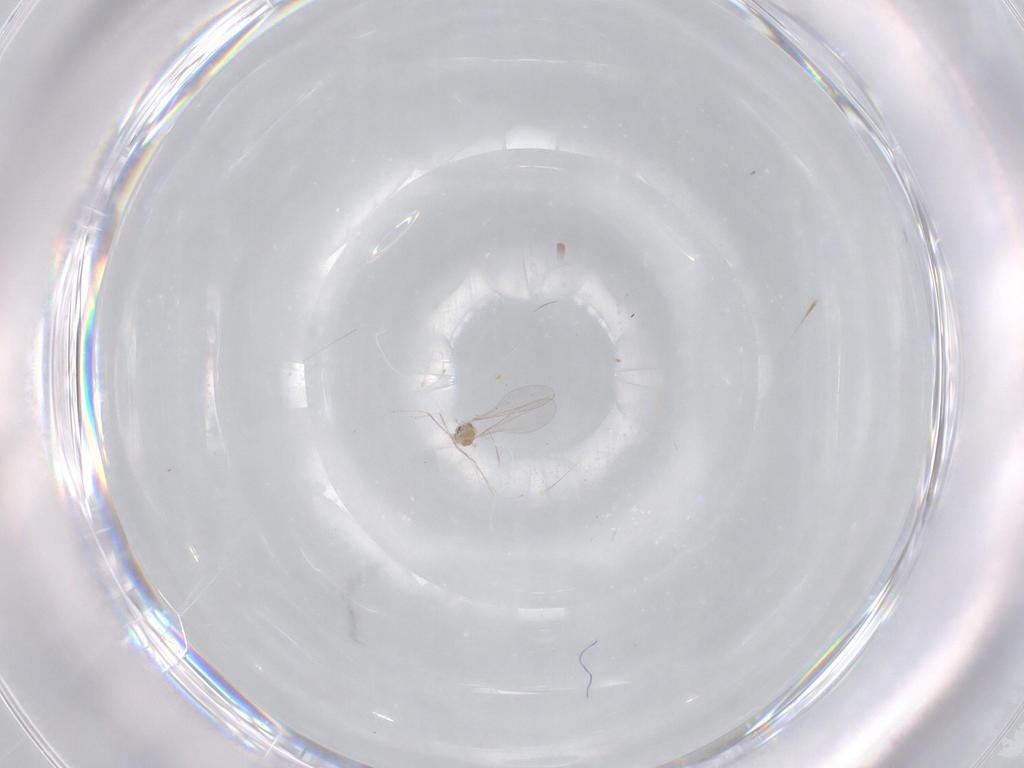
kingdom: Animalia
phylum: Arthropoda
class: Insecta
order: Diptera
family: Cecidomyiidae
